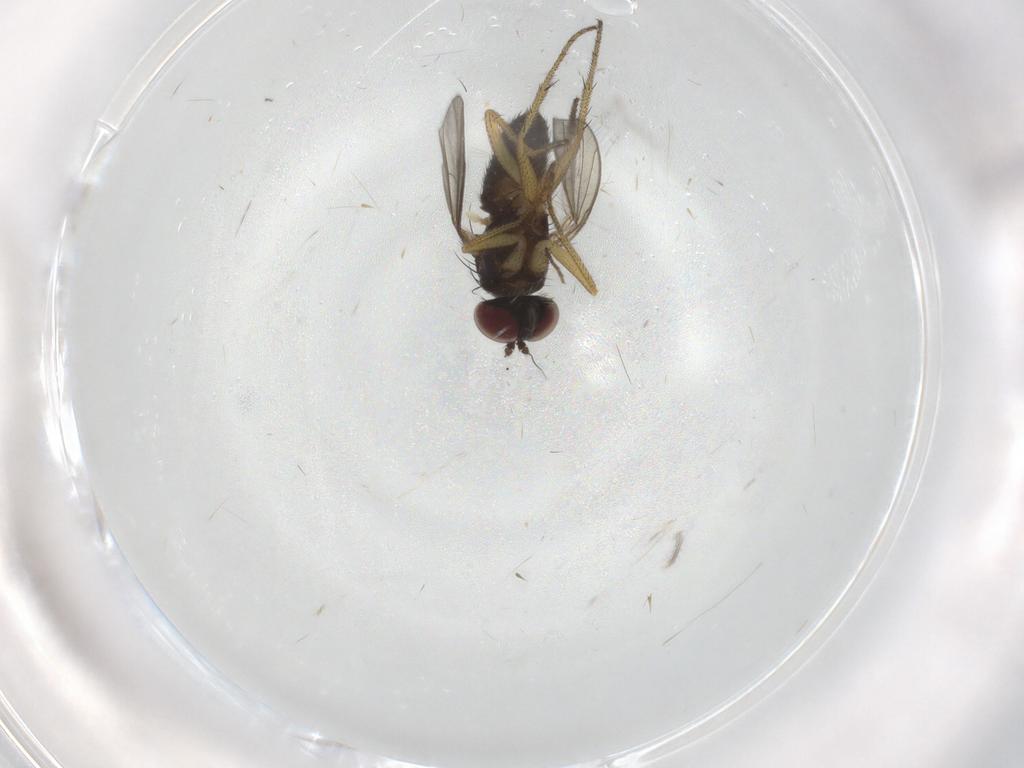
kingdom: Animalia
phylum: Arthropoda
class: Insecta
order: Diptera
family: Dolichopodidae
